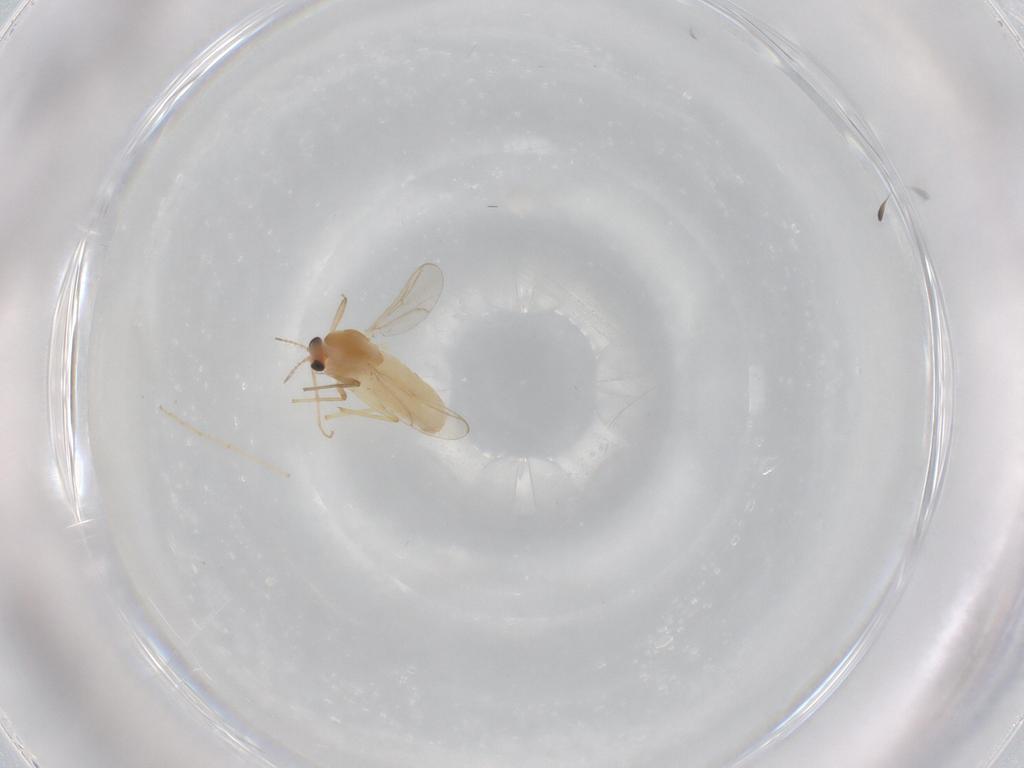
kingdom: Animalia
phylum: Arthropoda
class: Insecta
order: Diptera
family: Chironomidae
